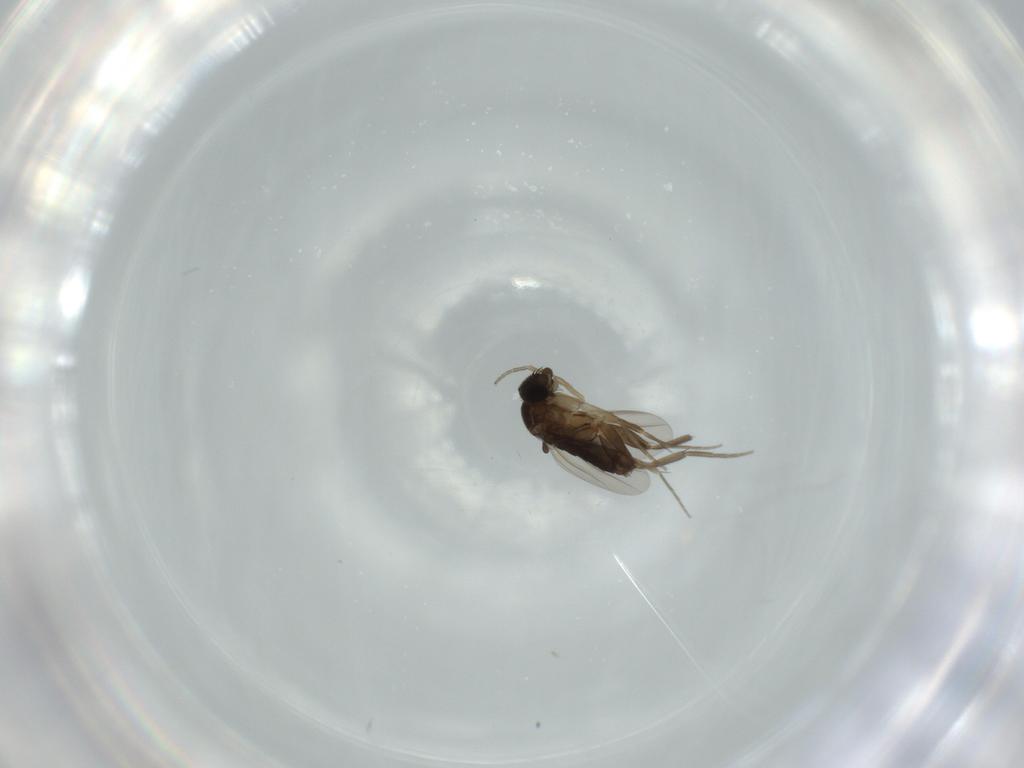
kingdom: Animalia
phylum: Arthropoda
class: Insecta
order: Diptera
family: Phoridae
